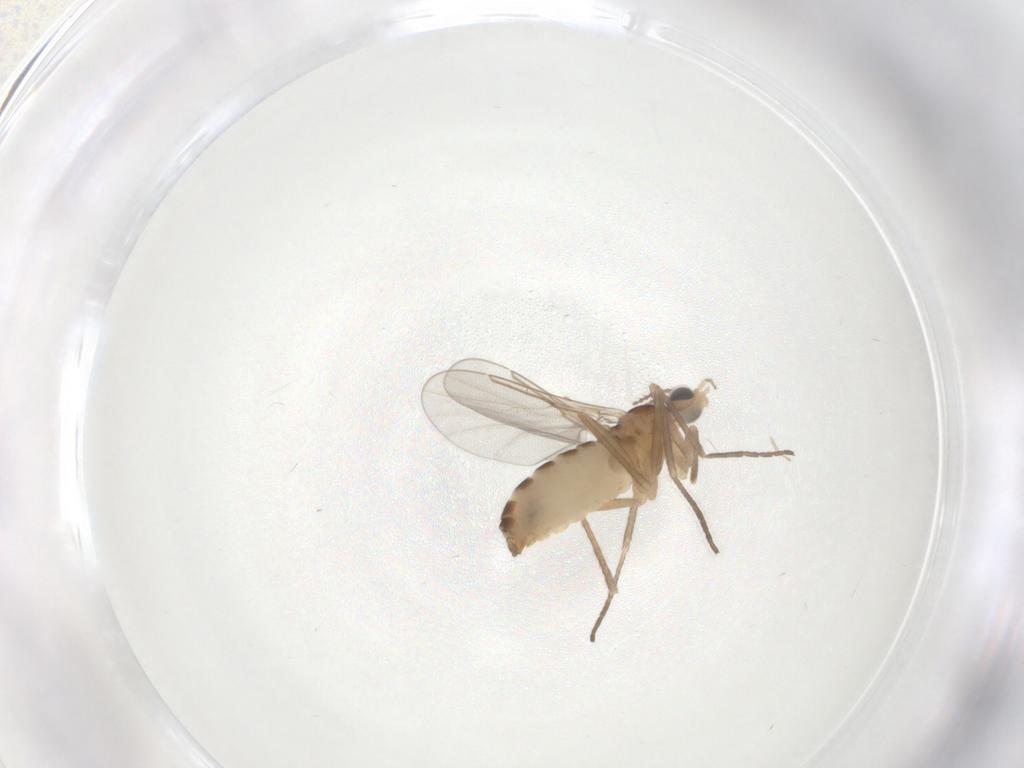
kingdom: Animalia
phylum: Arthropoda
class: Insecta
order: Diptera
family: Cecidomyiidae
